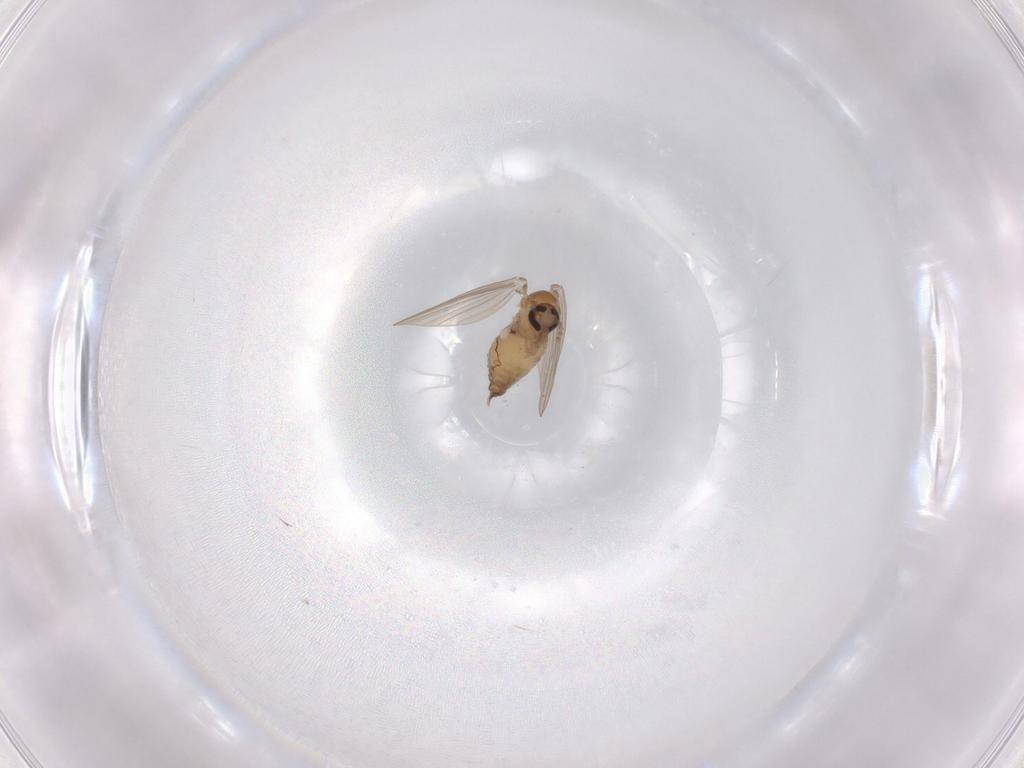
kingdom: Animalia
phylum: Arthropoda
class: Insecta
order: Diptera
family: Psychodidae
